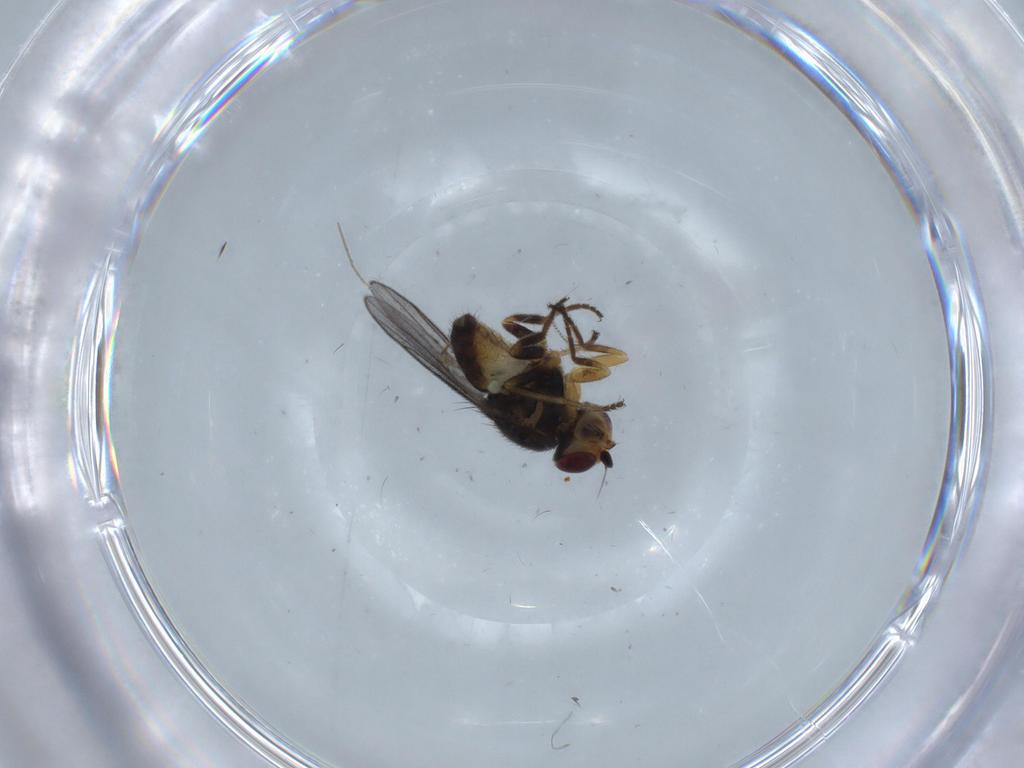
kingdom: Animalia
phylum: Arthropoda
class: Insecta
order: Diptera
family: Chloropidae
